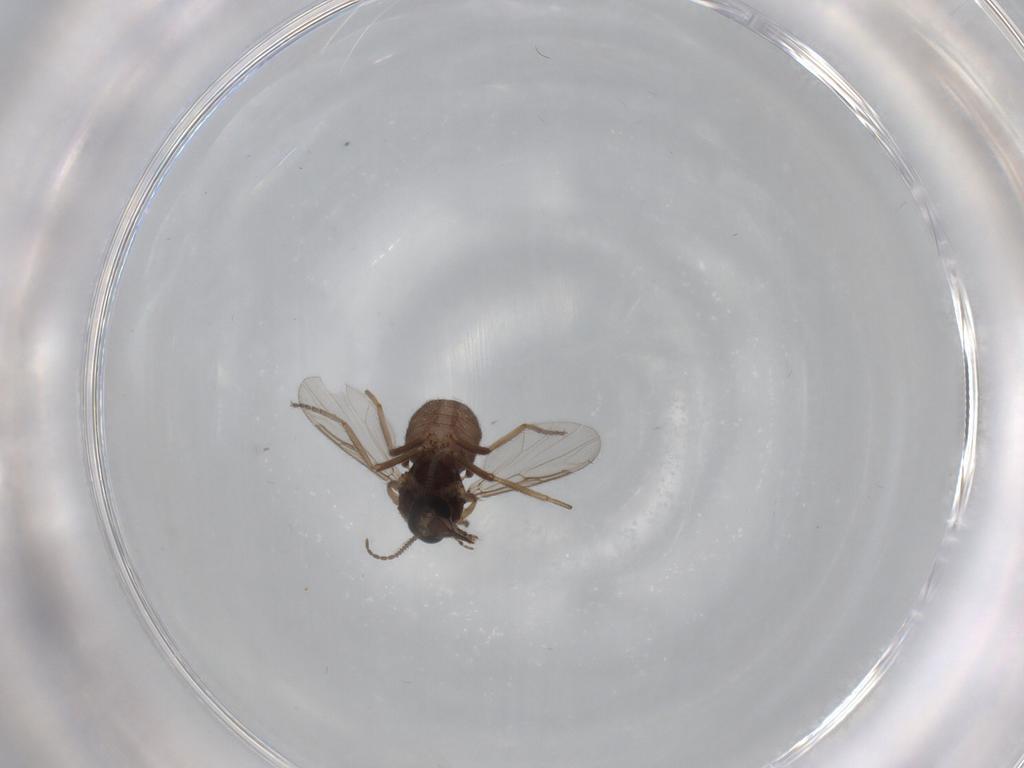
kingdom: Animalia
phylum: Arthropoda
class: Insecta
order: Diptera
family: Ceratopogonidae
